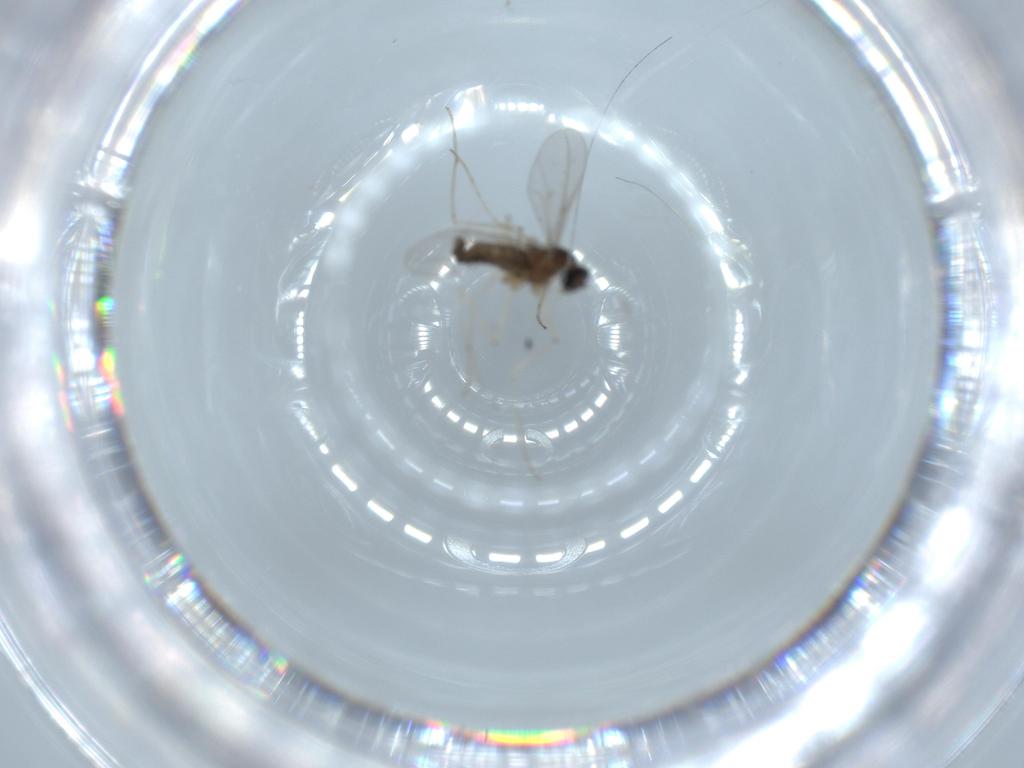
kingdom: Animalia
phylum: Arthropoda
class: Insecta
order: Diptera
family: Cecidomyiidae
